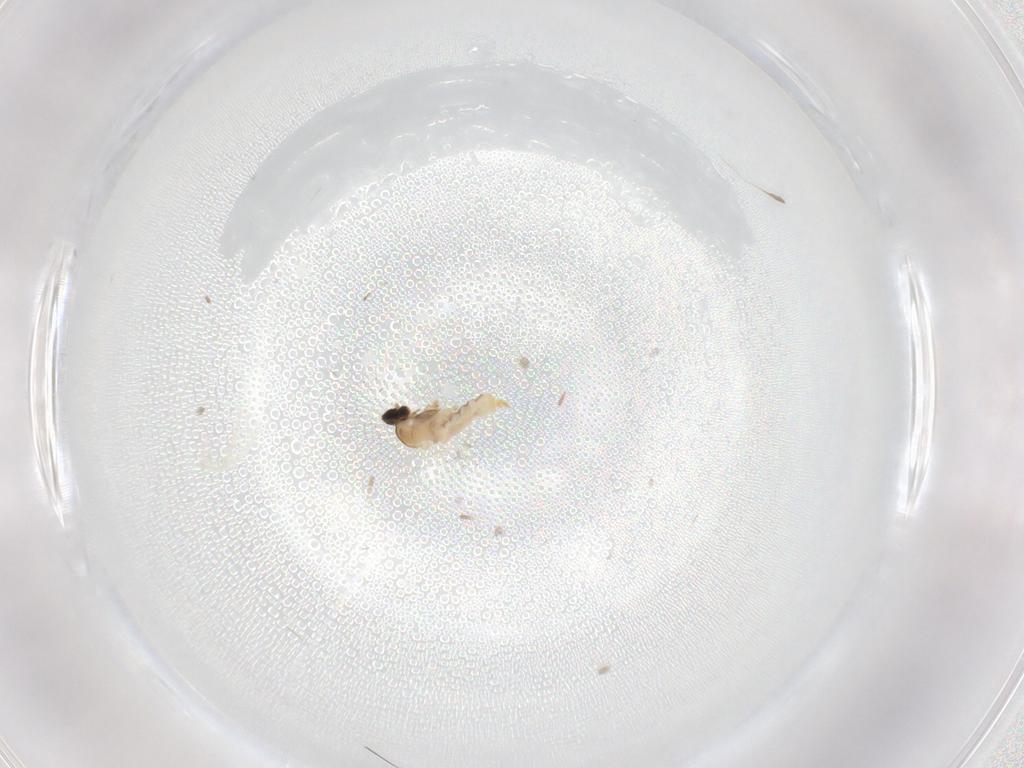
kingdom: Animalia
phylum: Arthropoda
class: Insecta
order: Diptera
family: Cecidomyiidae
